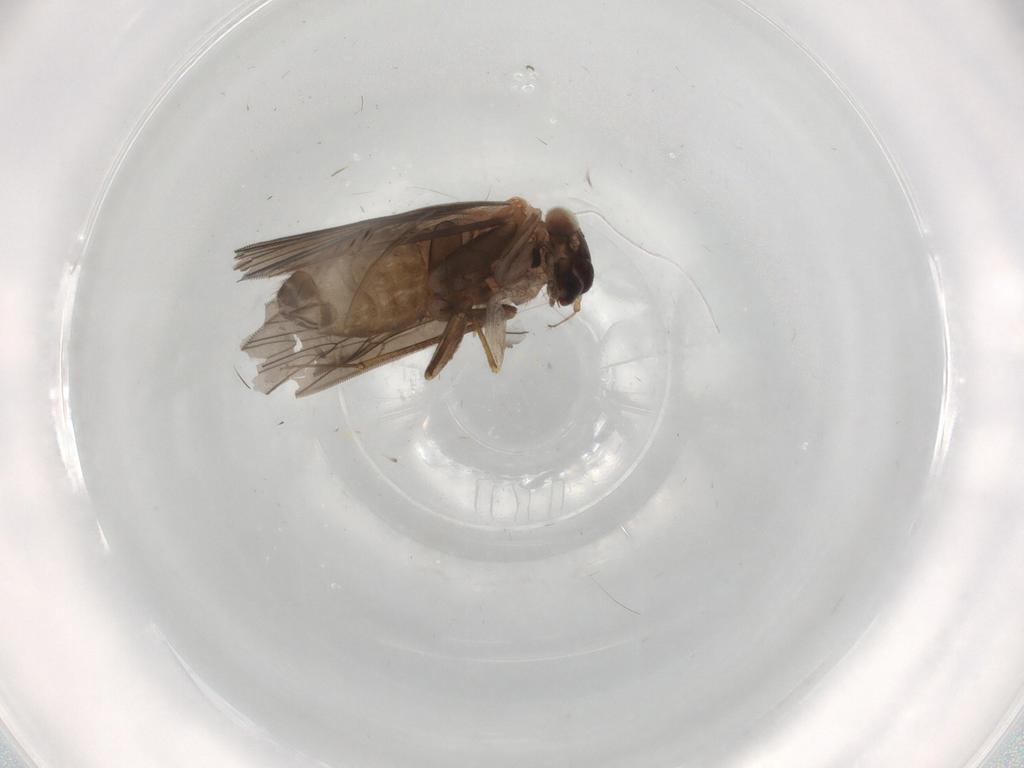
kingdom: Animalia
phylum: Arthropoda
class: Insecta
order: Psocodea
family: Lepidopsocidae
